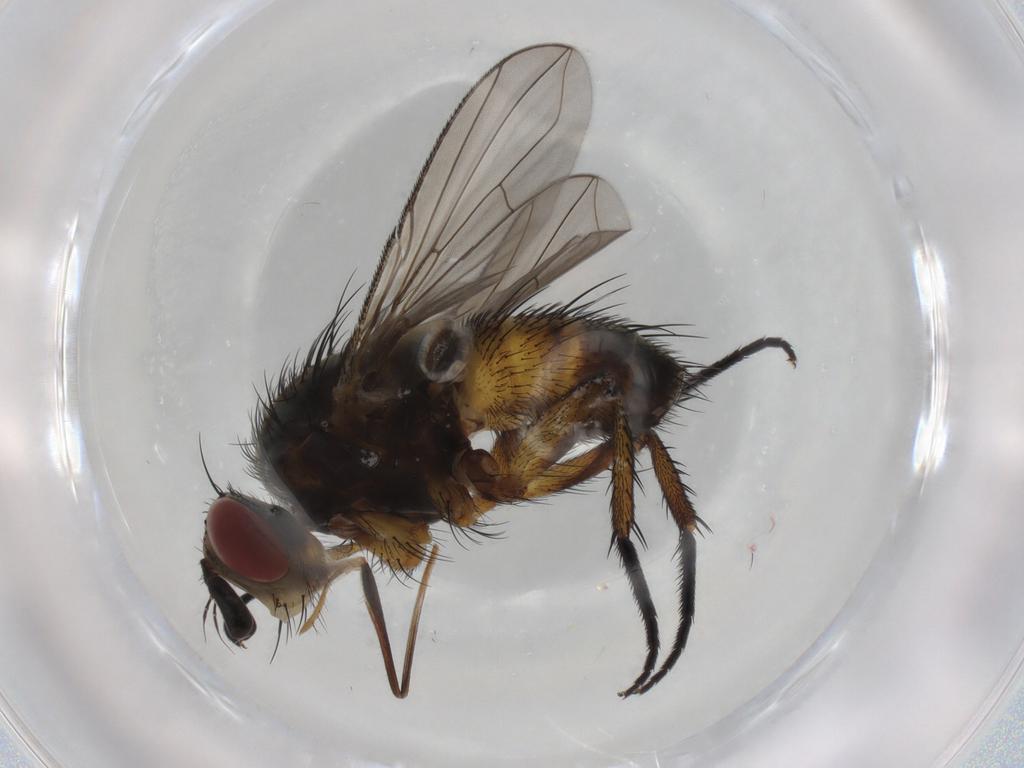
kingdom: Animalia
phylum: Arthropoda
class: Insecta
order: Diptera
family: Tachinidae
